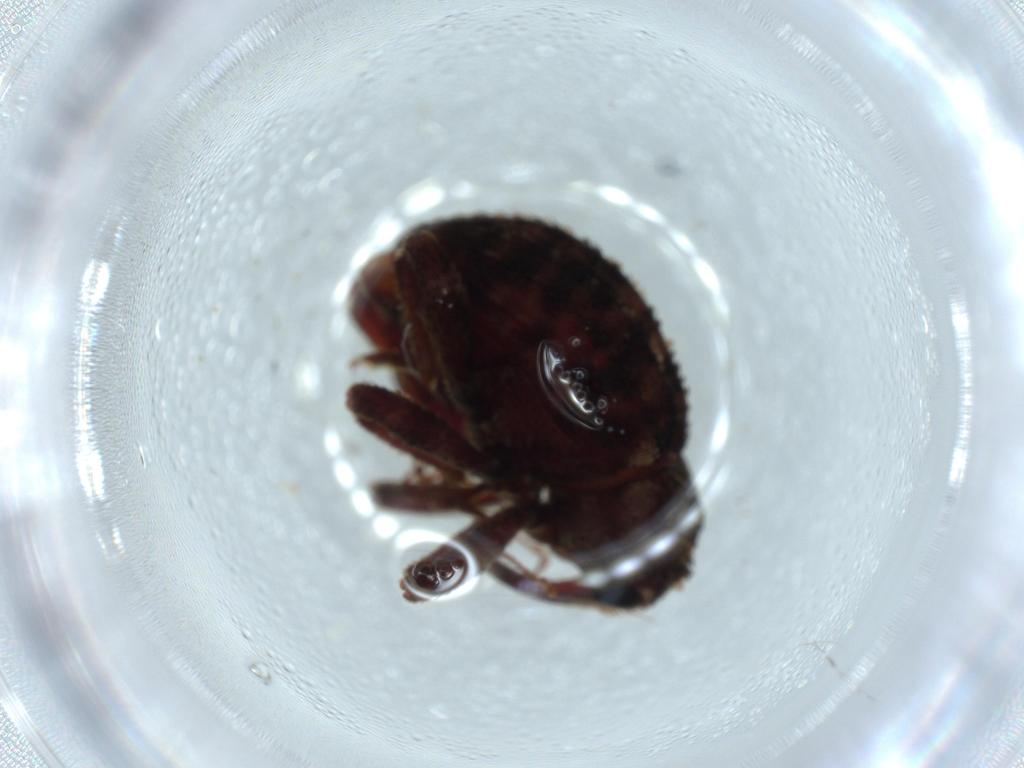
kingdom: Animalia
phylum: Arthropoda
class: Insecta
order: Coleoptera
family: Curculionidae
